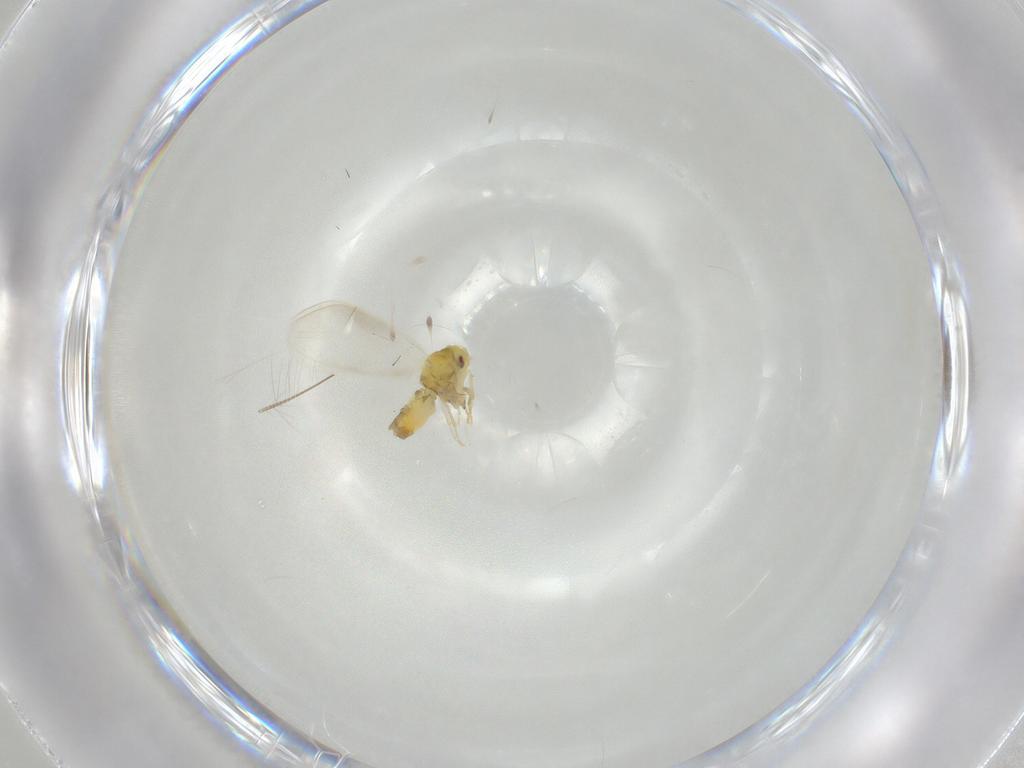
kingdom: Animalia
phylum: Arthropoda
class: Insecta
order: Hemiptera
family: Aleyrodidae
